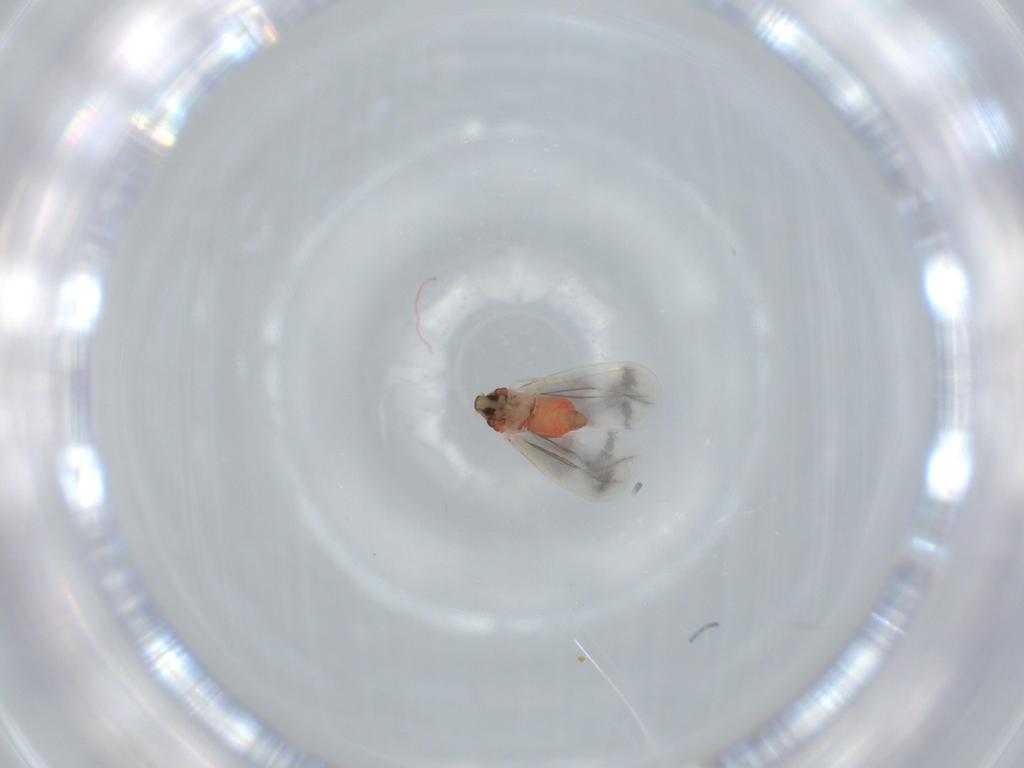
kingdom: Animalia
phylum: Arthropoda
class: Insecta
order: Hemiptera
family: Aleyrodidae
